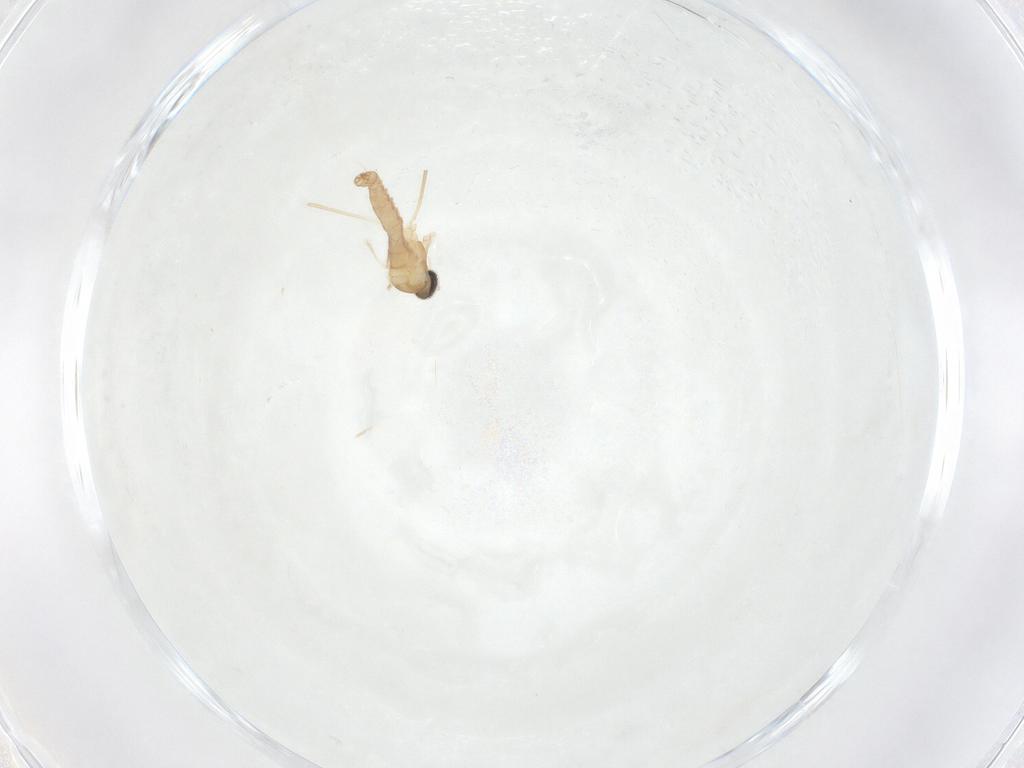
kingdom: Animalia
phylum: Arthropoda
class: Insecta
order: Diptera
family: Cecidomyiidae
